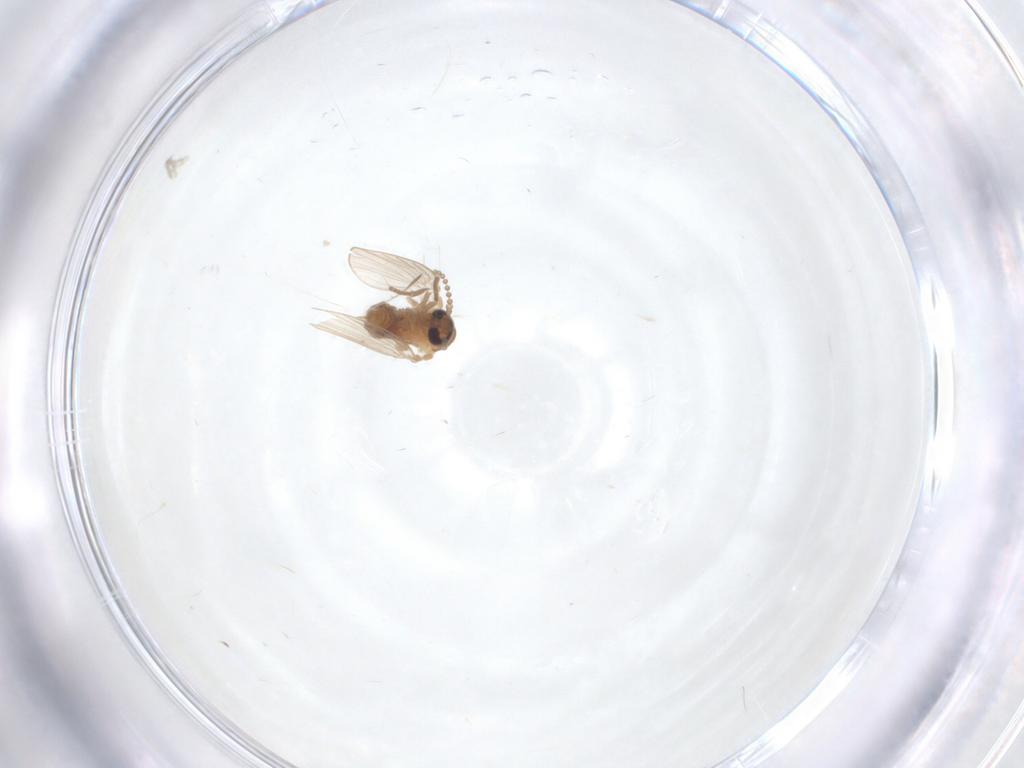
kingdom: Animalia
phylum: Arthropoda
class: Insecta
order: Diptera
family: Psychodidae
